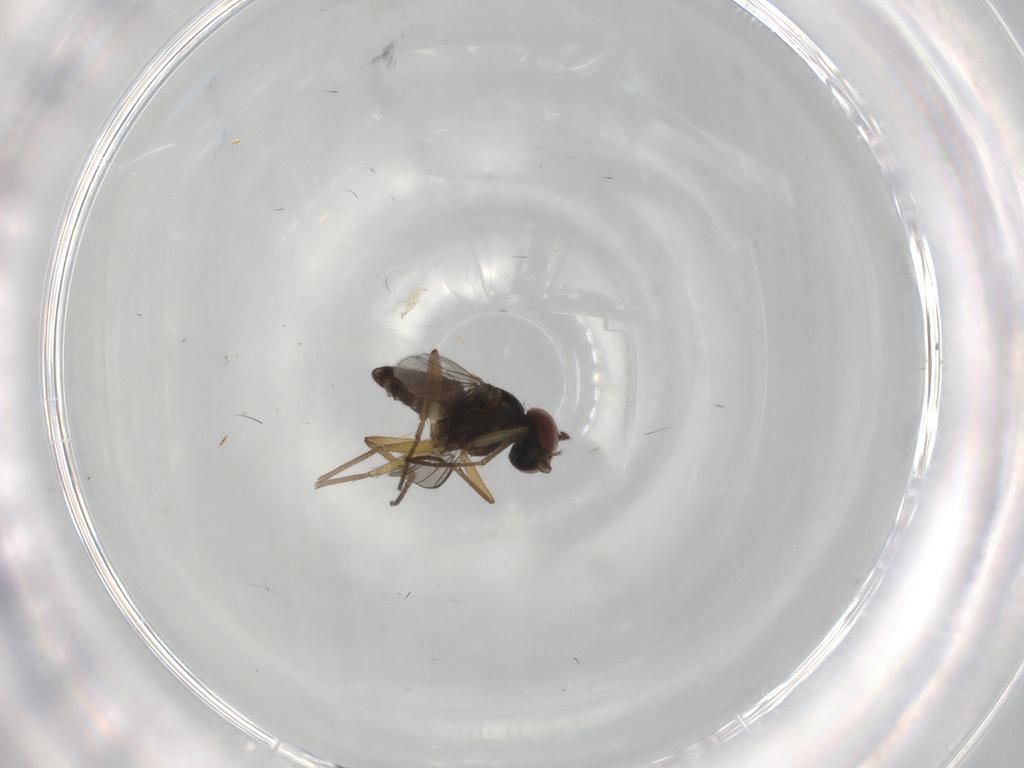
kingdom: Animalia
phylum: Arthropoda
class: Insecta
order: Diptera
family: Dolichopodidae
